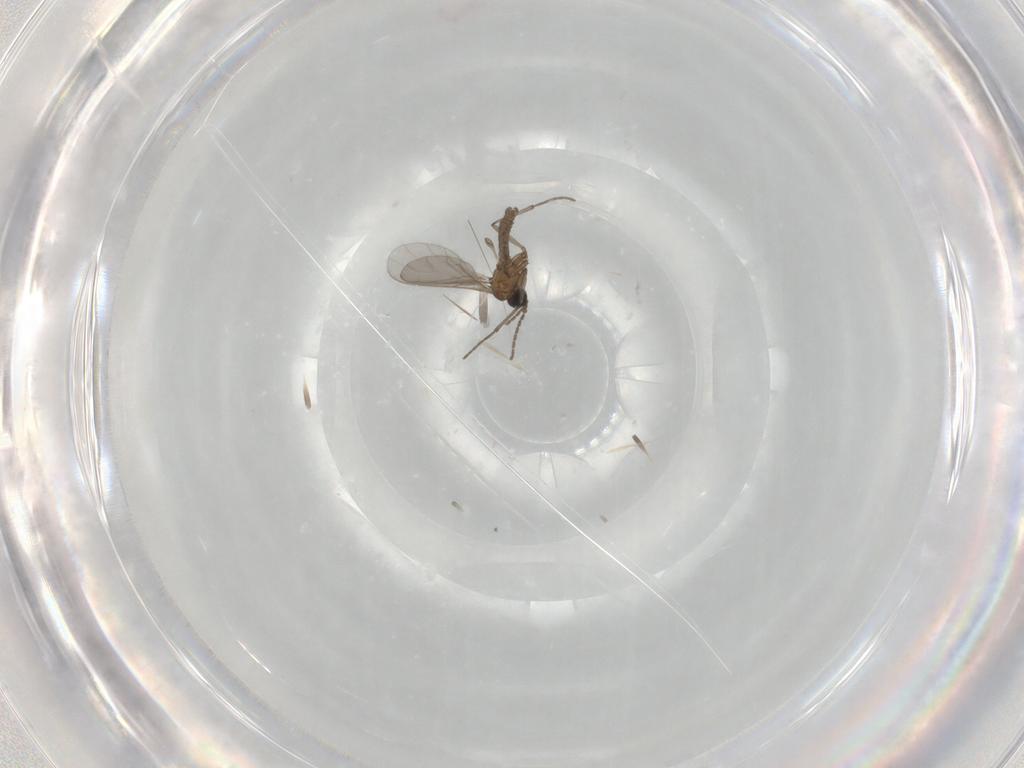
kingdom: Animalia
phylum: Arthropoda
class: Insecta
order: Diptera
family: Sciaridae
